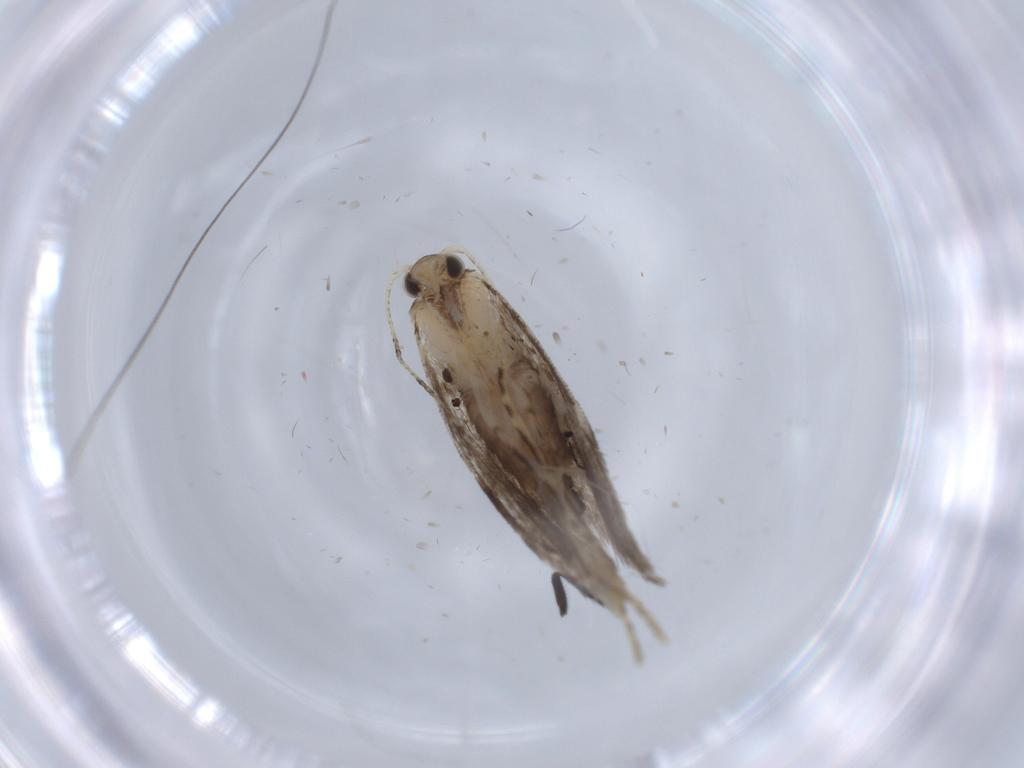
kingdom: Animalia
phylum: Arthropoda
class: Insecta
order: Lepidoptera
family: Tineidae
